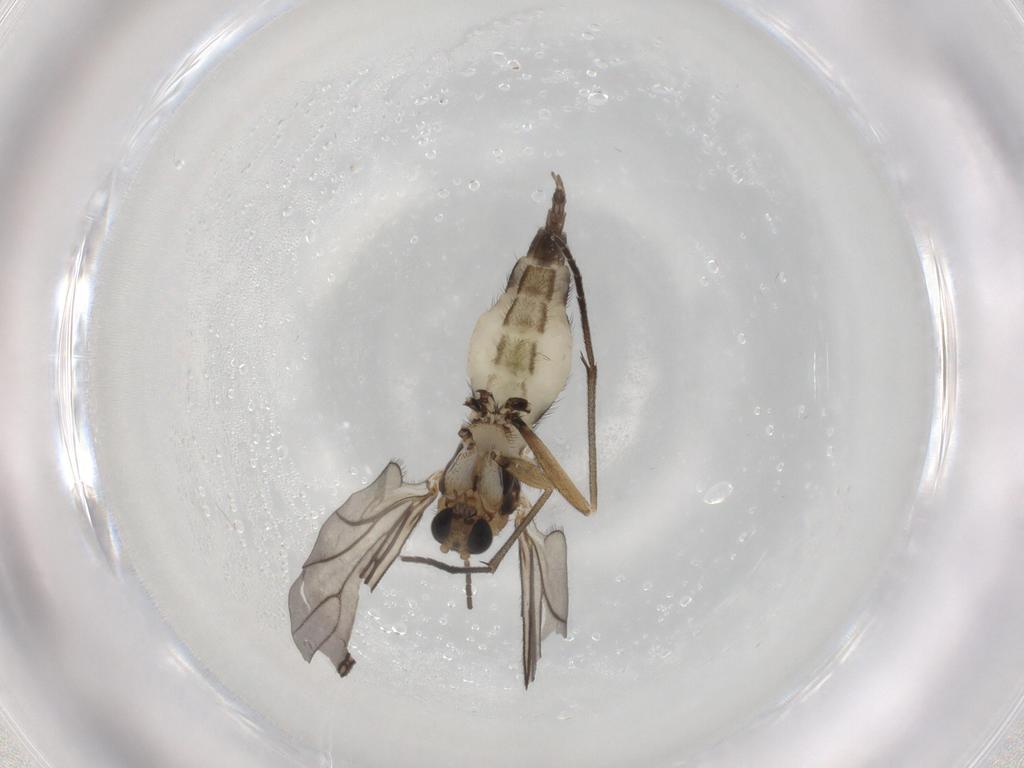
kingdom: Animalia
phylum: Arthropoda
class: Insecta
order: Diptera
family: Sciaridae
